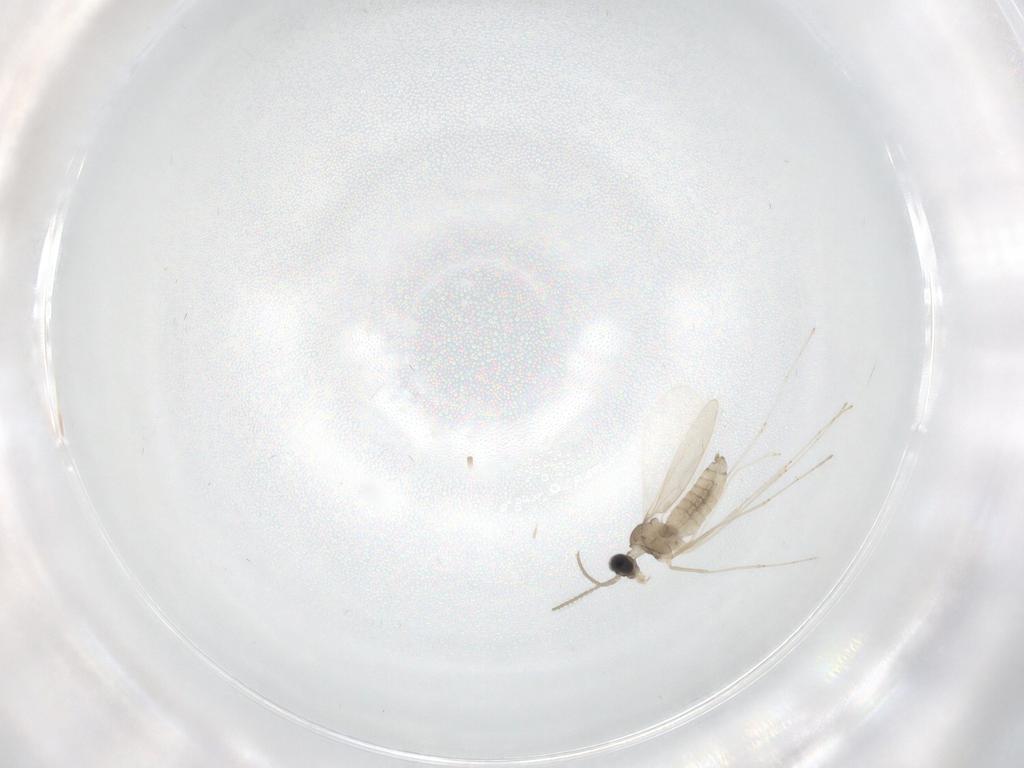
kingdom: Animalia
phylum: Arthropoda
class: Insecta
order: Diptera
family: Cecidomyiidae
